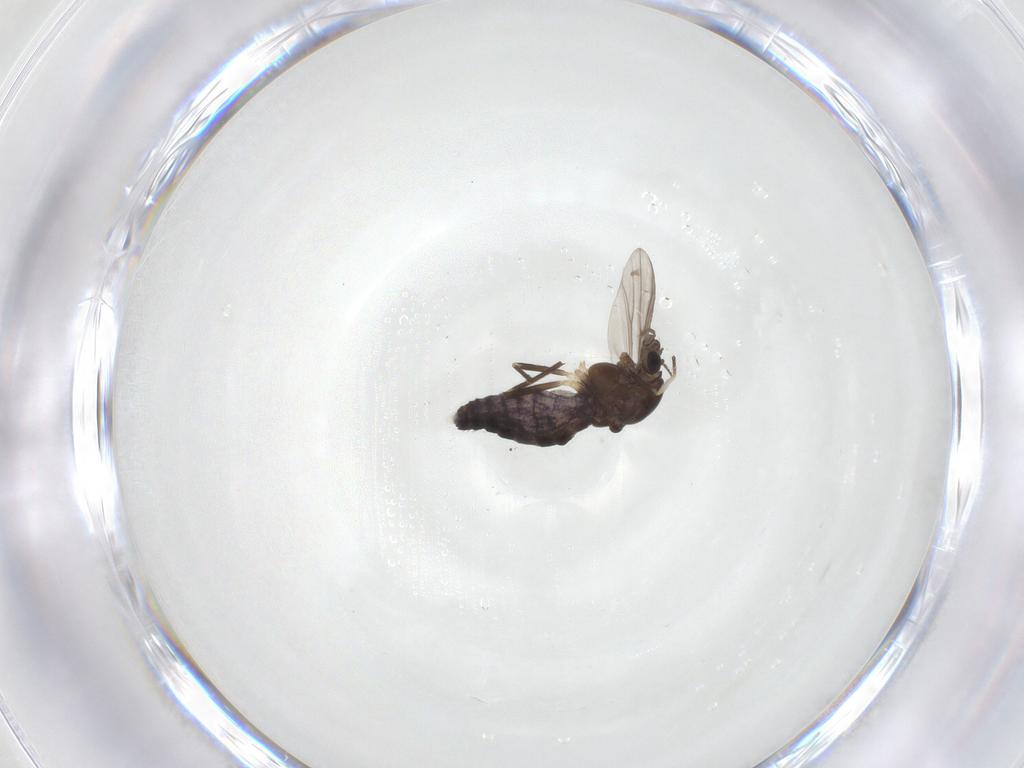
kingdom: Animalia
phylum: Arthropoda
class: Insecta
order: Diptera
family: Chironomidae
